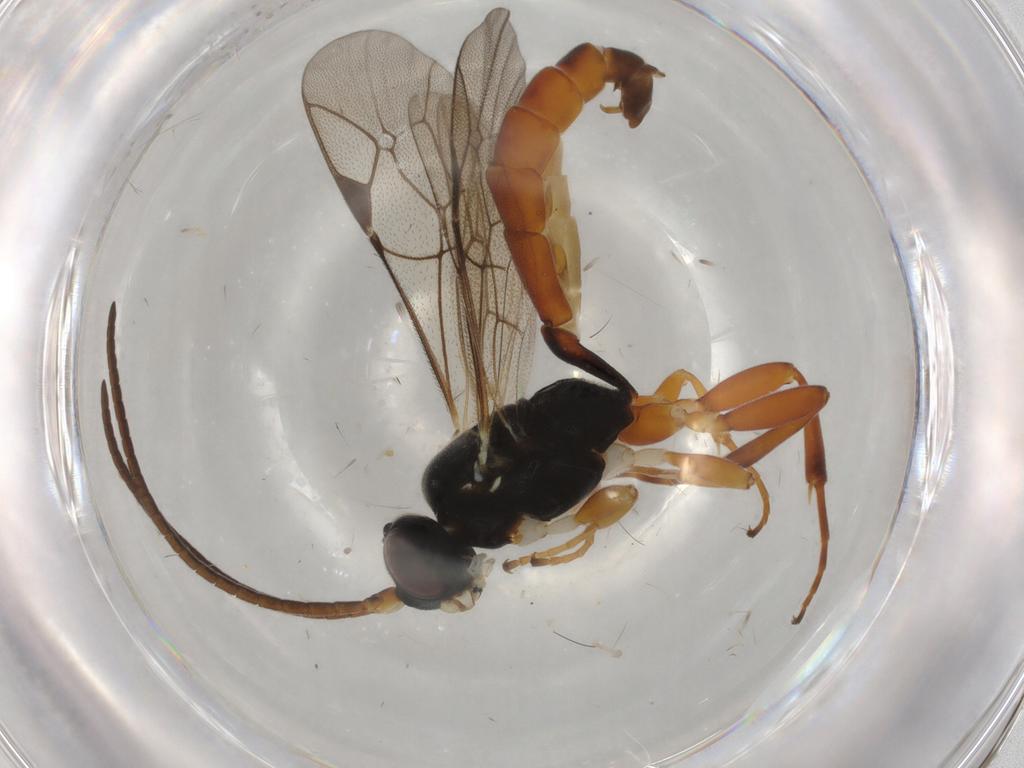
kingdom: Animalia
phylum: Arthropoda
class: Insecta
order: Hymenoptera
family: Ichneumonidae
